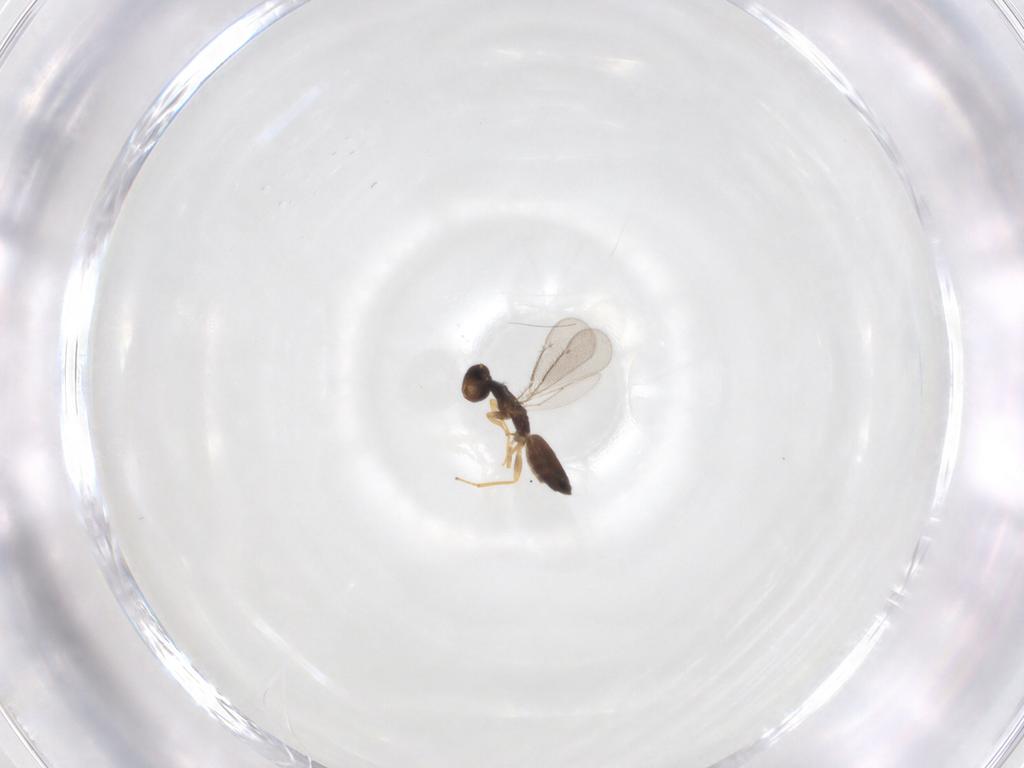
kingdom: Animalia
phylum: Arthropoda
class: Insecta
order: Hymenoptera
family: Eulophidae
